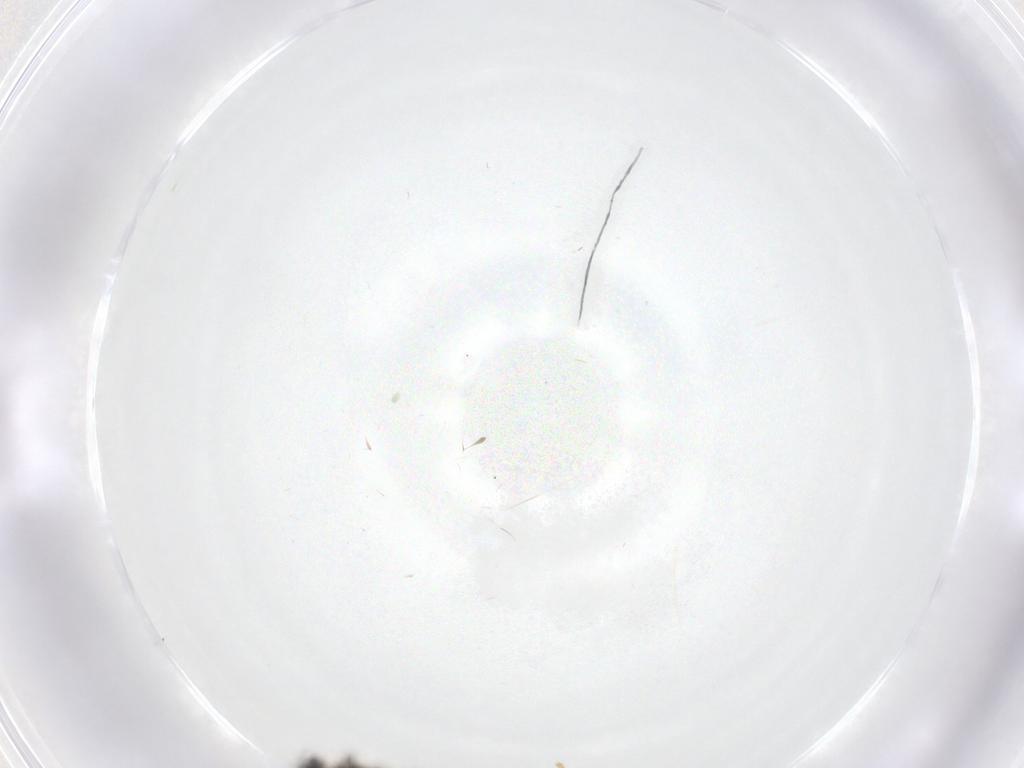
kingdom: Animalia
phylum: Arthropoda
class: Insecta
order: Diptera
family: Cecidomyiidae
